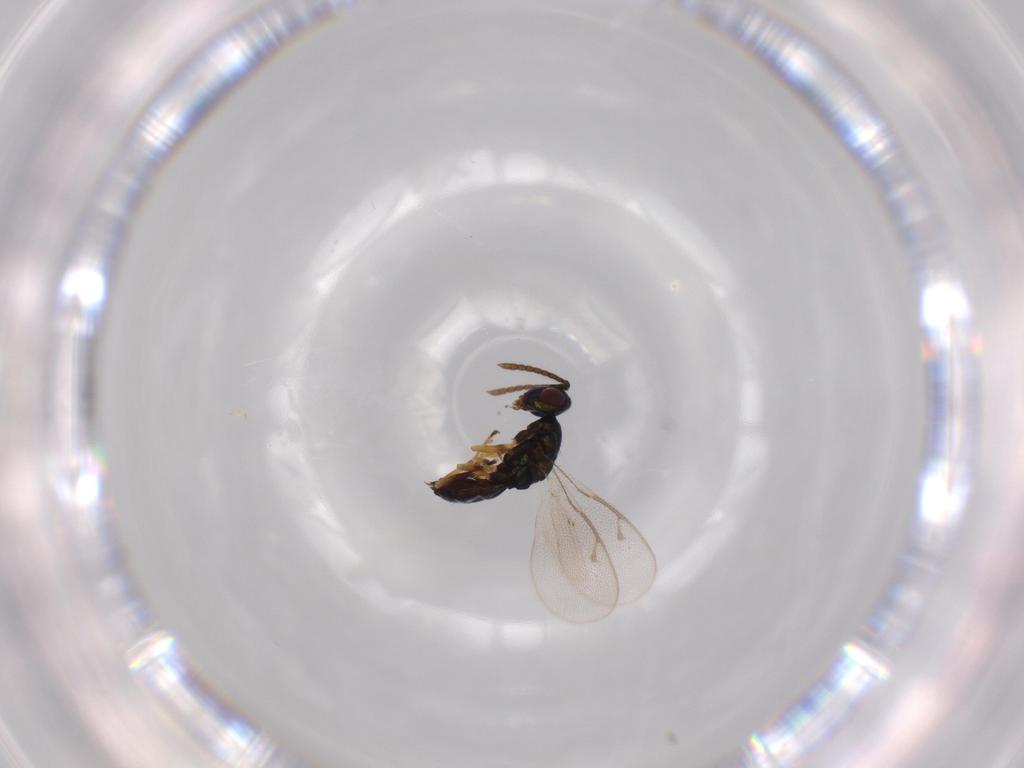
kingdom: Animalia
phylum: Arthropoda
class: Insecta
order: Hymenoptera
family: Pteromalidae
